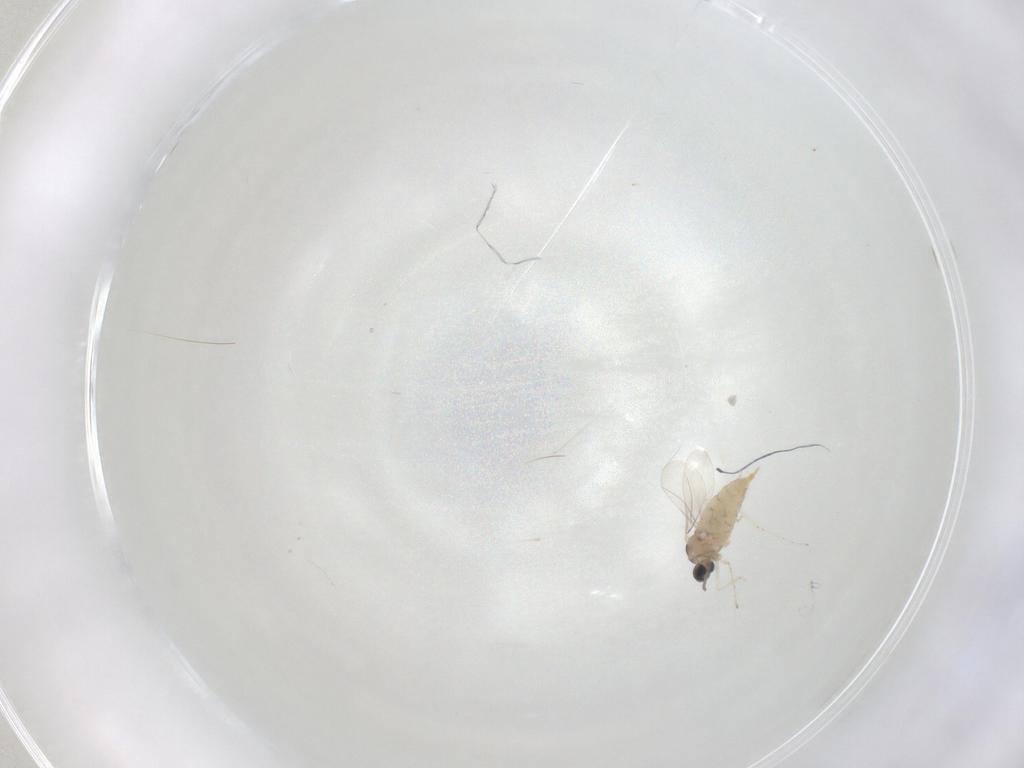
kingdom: Animalia
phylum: Arthropoda
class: Insecta
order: Diptera
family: Cecidomyiidae
